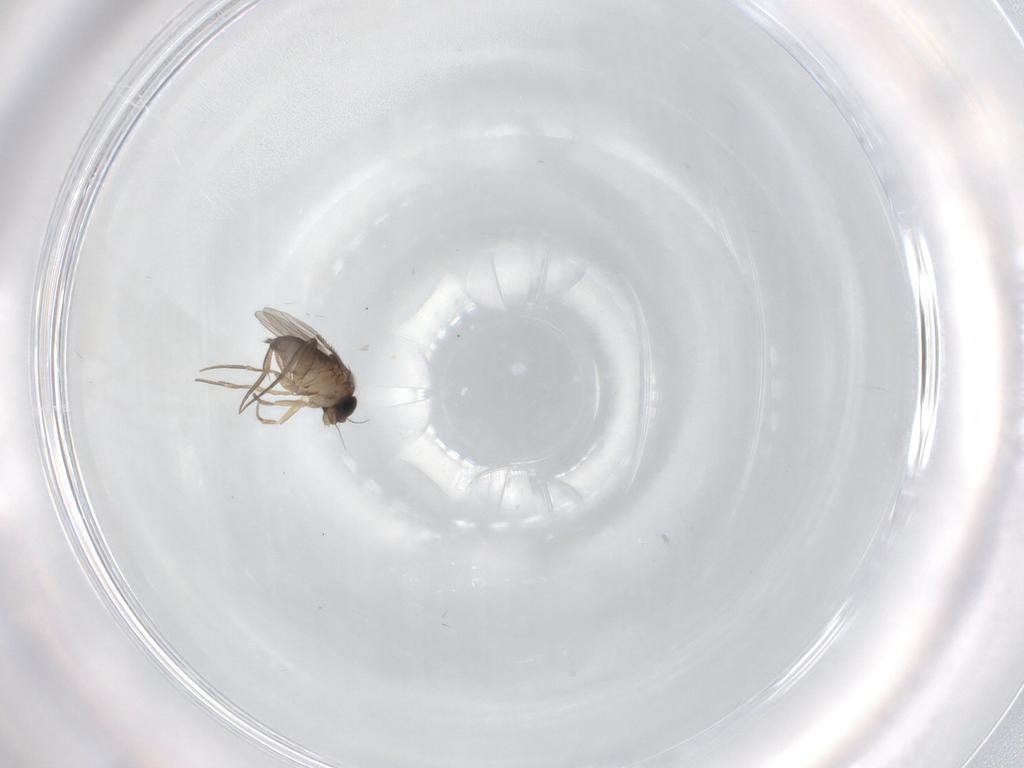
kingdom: Animalia
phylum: Arthropoda
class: Insecta
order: Diptera
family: Phoridae
